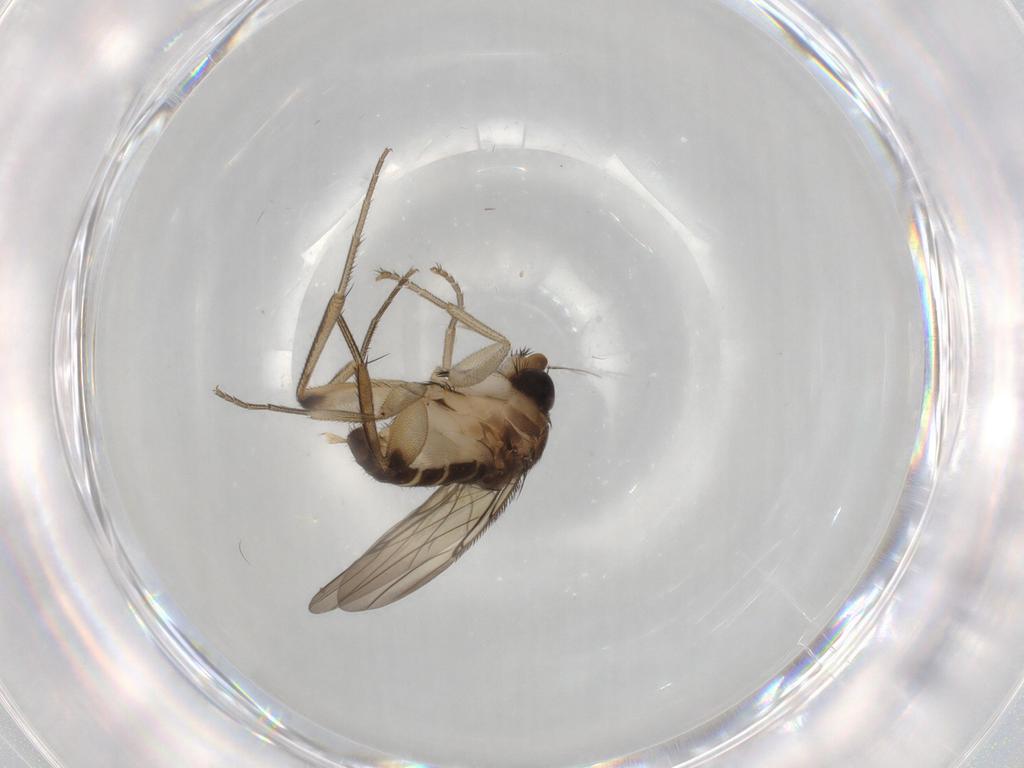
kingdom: Animalia
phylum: Arthropoda
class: Insecta
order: Diptera
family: Phoridae
